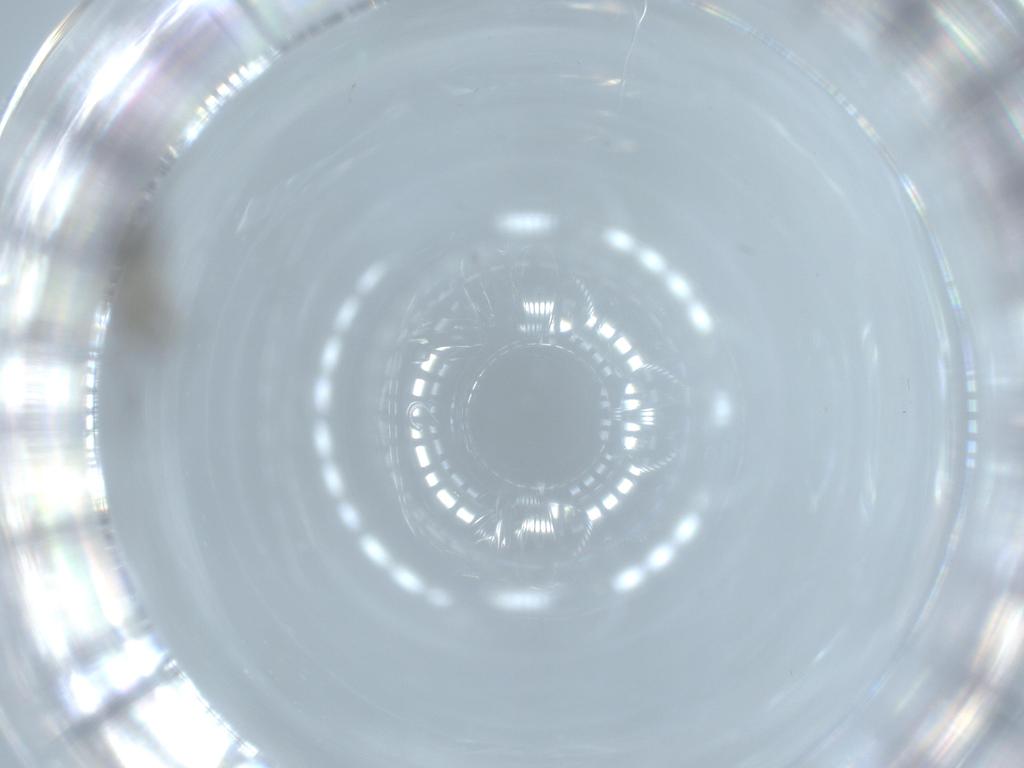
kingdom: Animalia
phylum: Arthropoda
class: Insecta
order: Diptera
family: Sciaridae
